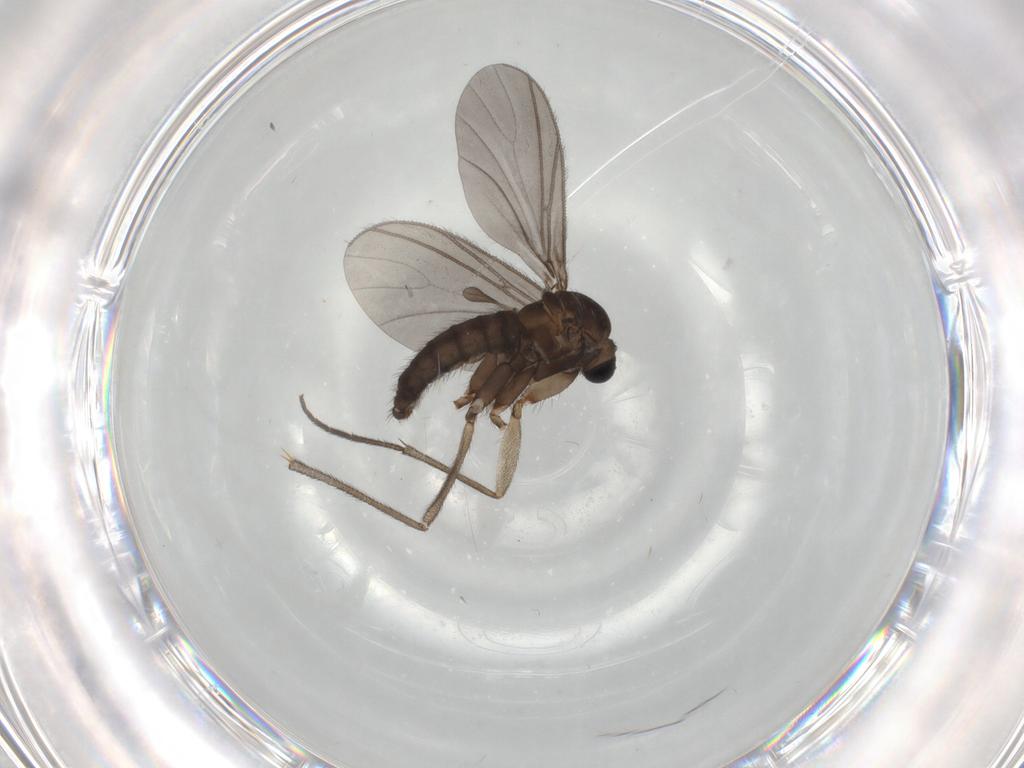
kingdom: Animalia
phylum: Arthropoda
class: Insecta
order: Diptera
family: Sciaridae
